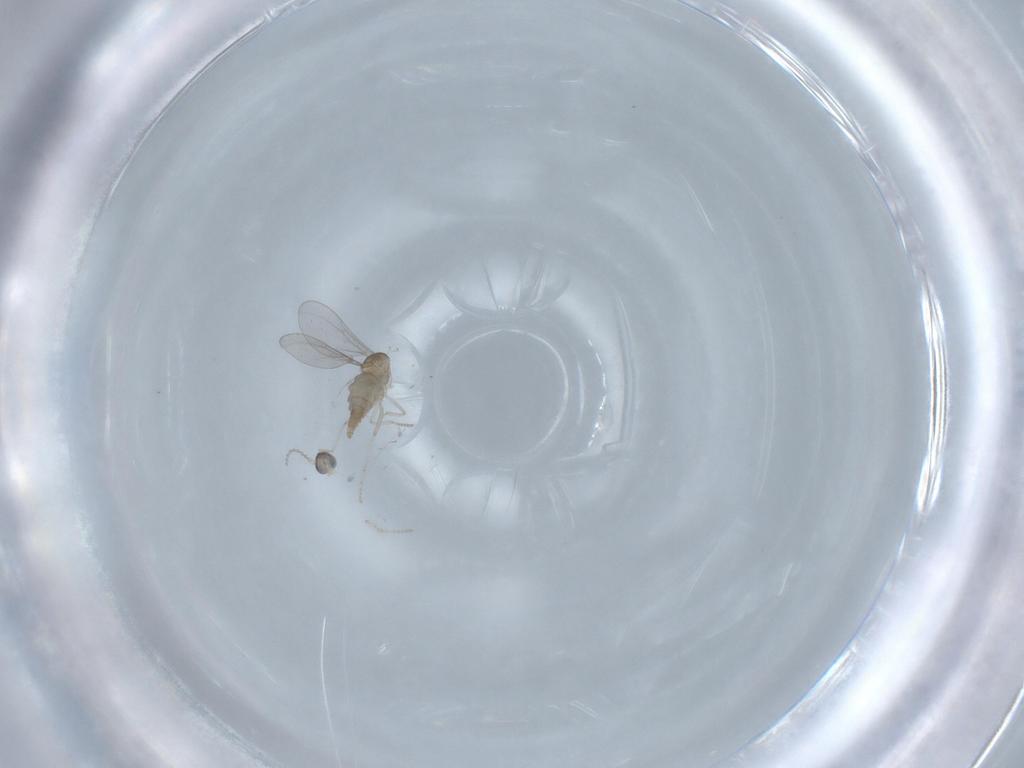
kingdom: Animalia
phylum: Arthropoda
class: Insecta
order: Diptera
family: Cecidomyiidae
